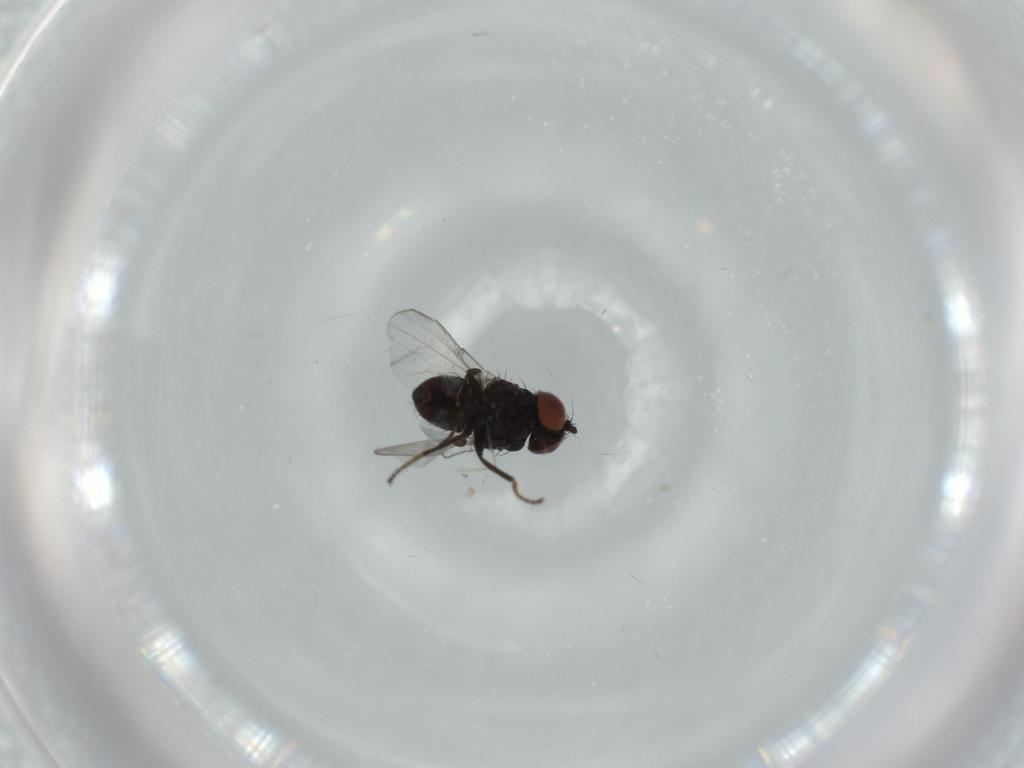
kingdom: Animalia
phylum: Arthropoda
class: Insecta
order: Diptera
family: Milichiidae
